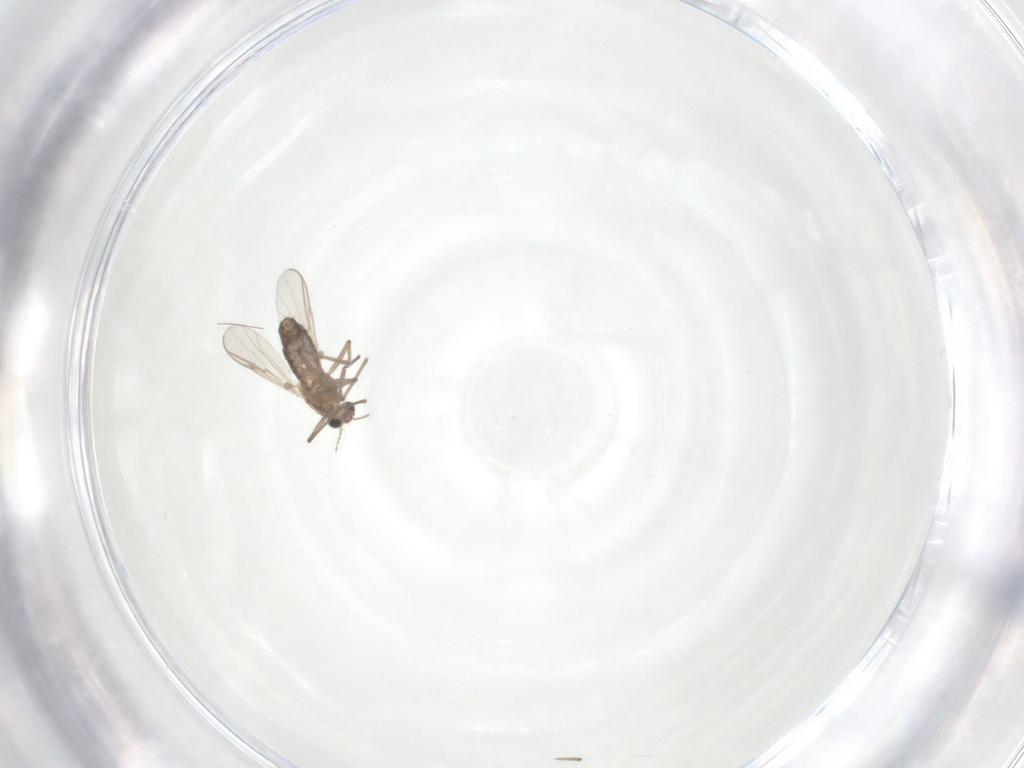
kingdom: Animalia
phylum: Arthropoda
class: Insecta
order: Diptera
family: Chironomidae
